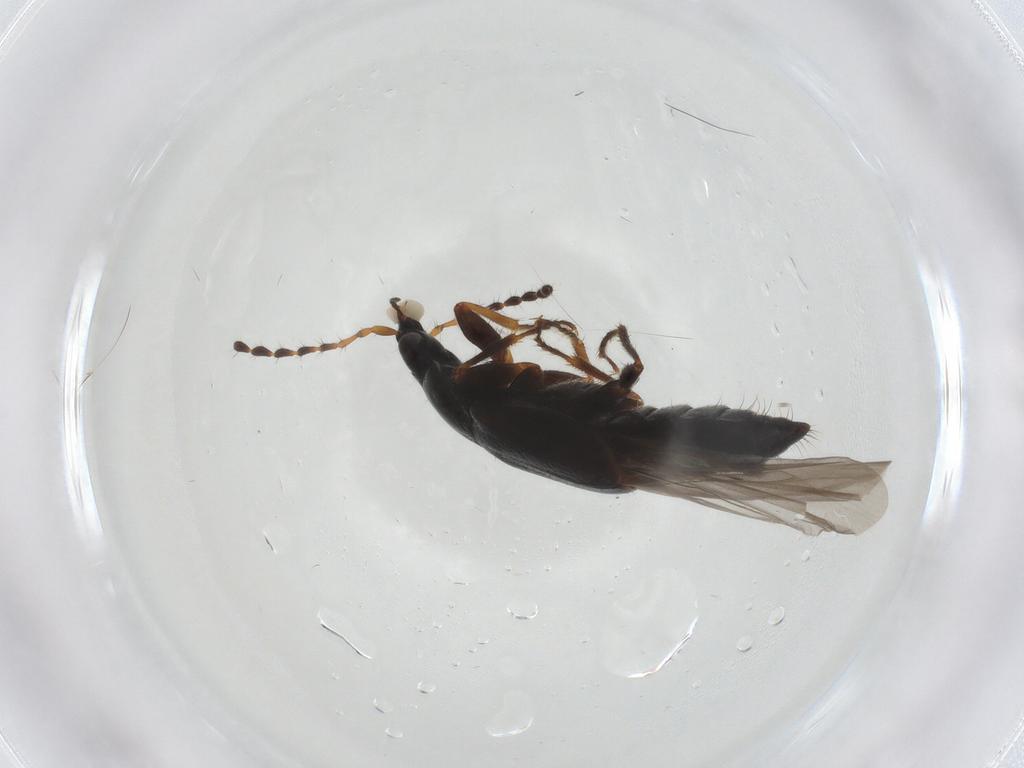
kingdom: Animalia
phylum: Arthropoda
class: Insecta
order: Coleoptera
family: Staphylinidae
